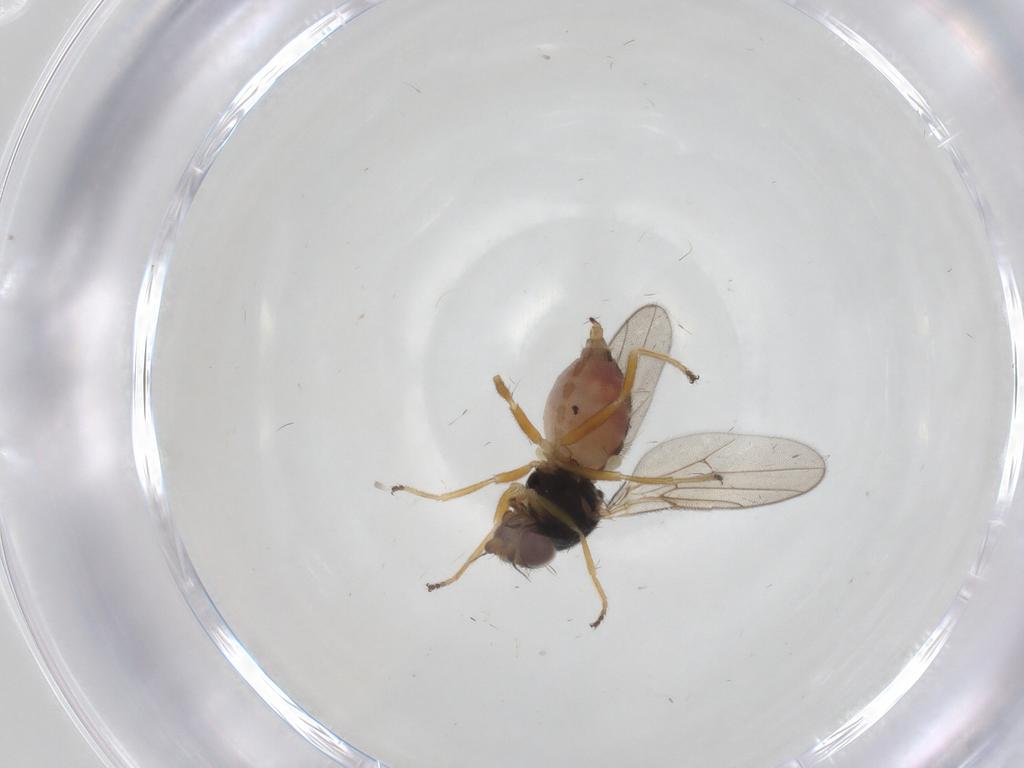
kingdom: Animalia
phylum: Arthropoda
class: Insecta
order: Diptera
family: Chloropidae
